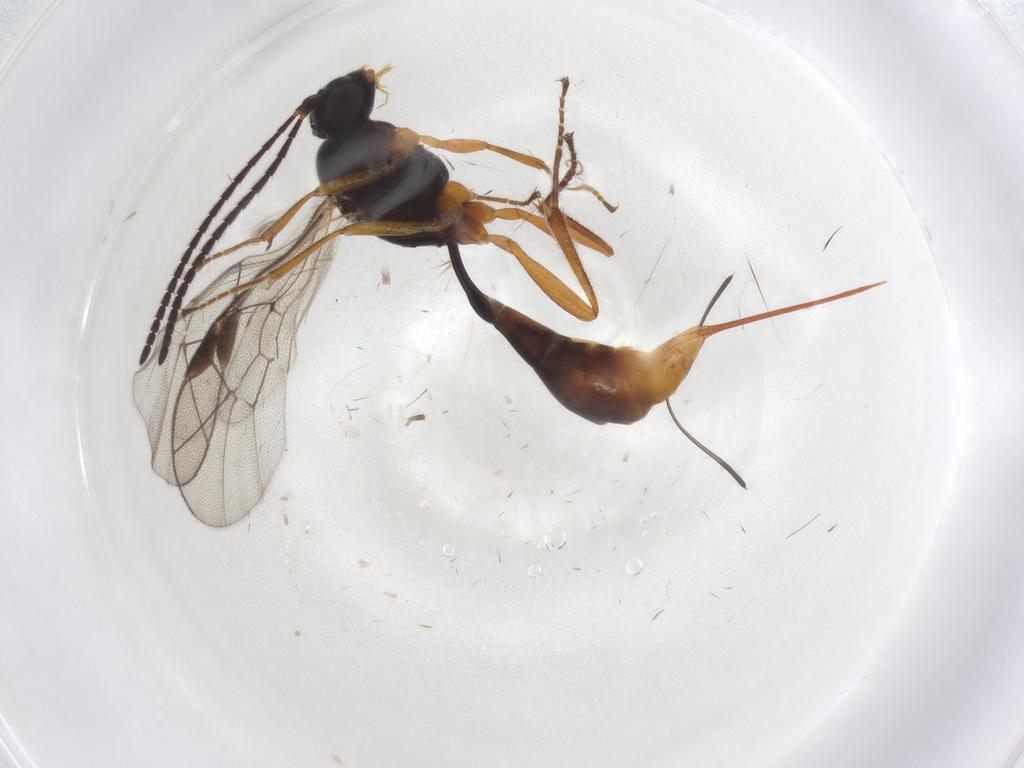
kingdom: Animalia
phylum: Arthropoda
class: Insecta
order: Hymenoptera
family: Ichneumonidae
